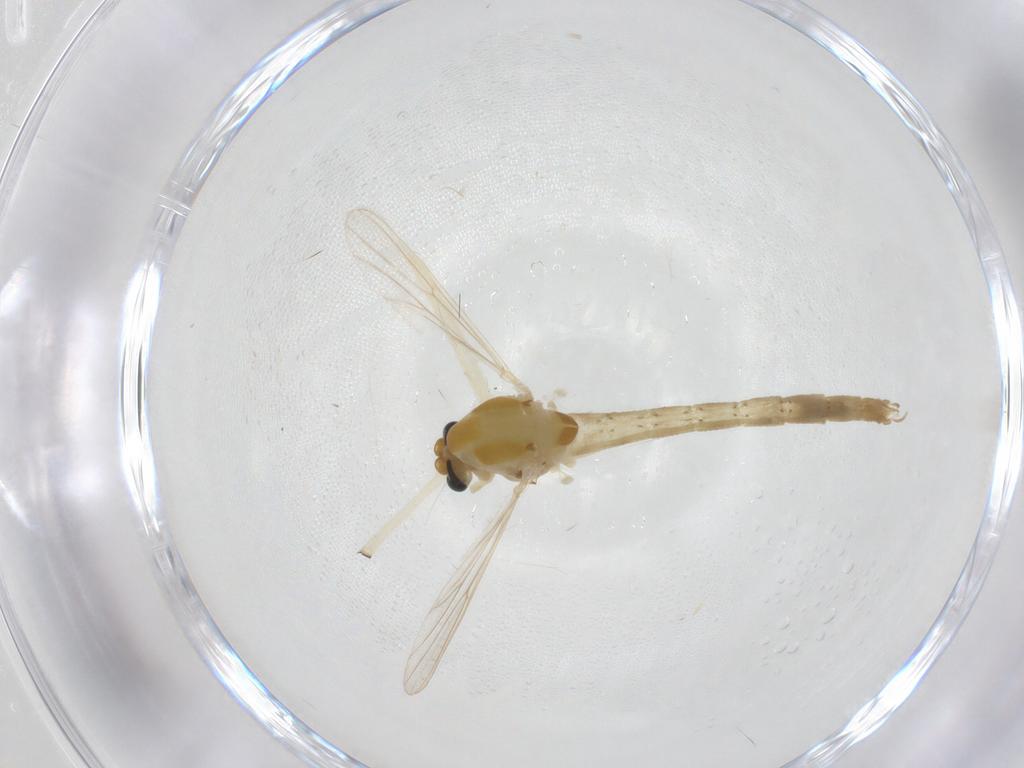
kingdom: Animalia
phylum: Arthropoda
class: Insecta
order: Diptera
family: Chironomidae
